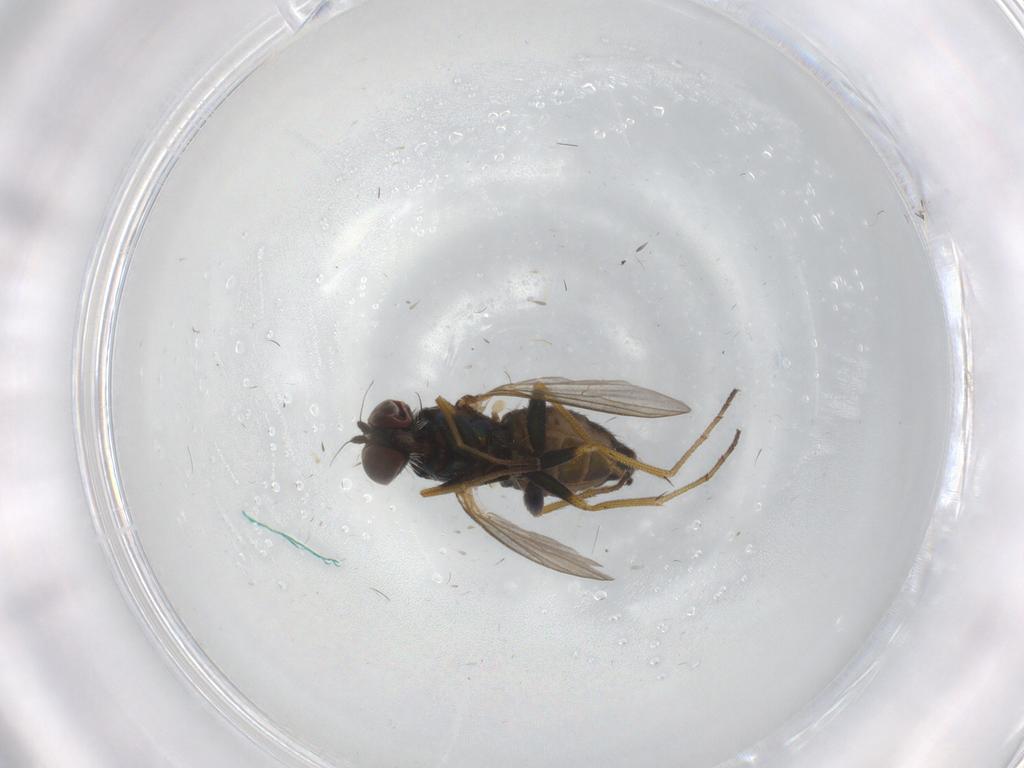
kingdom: Animalia
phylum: Arthropoda
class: Insecta
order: Diptera
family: Dolichopodidae
